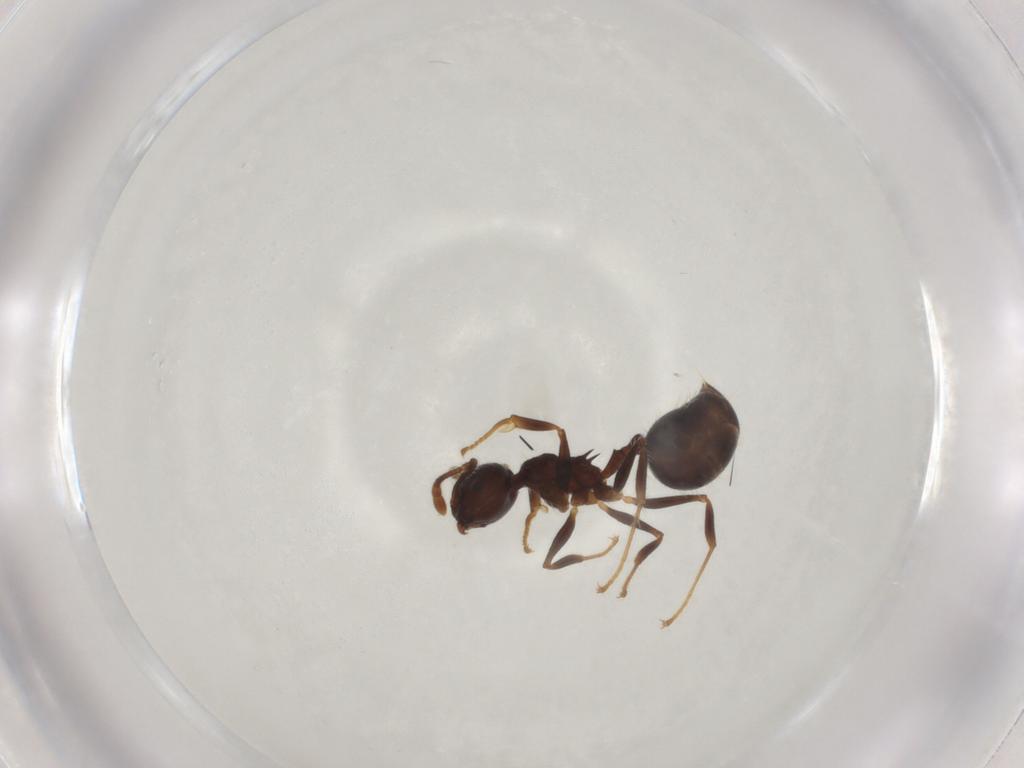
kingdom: Animalia
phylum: Arthropoda
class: Insecta
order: Hymenoptera
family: Formicidae
